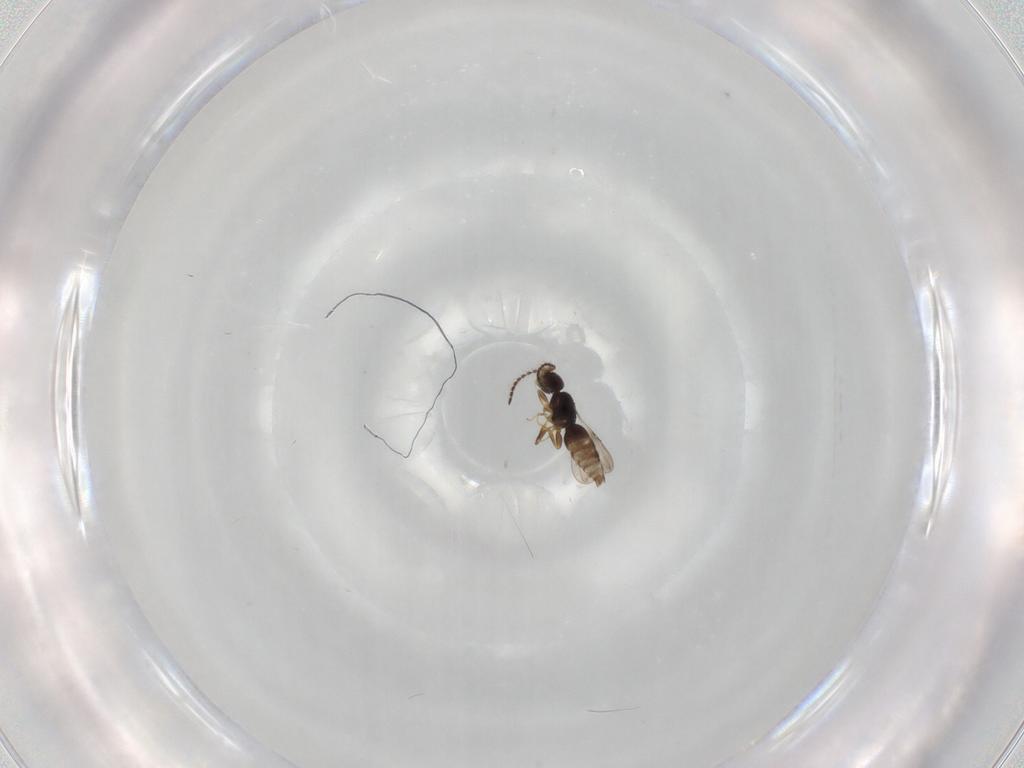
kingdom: Animalia
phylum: Arthropoda
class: Insecta
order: Hymenoptera
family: Ceraphronidae
